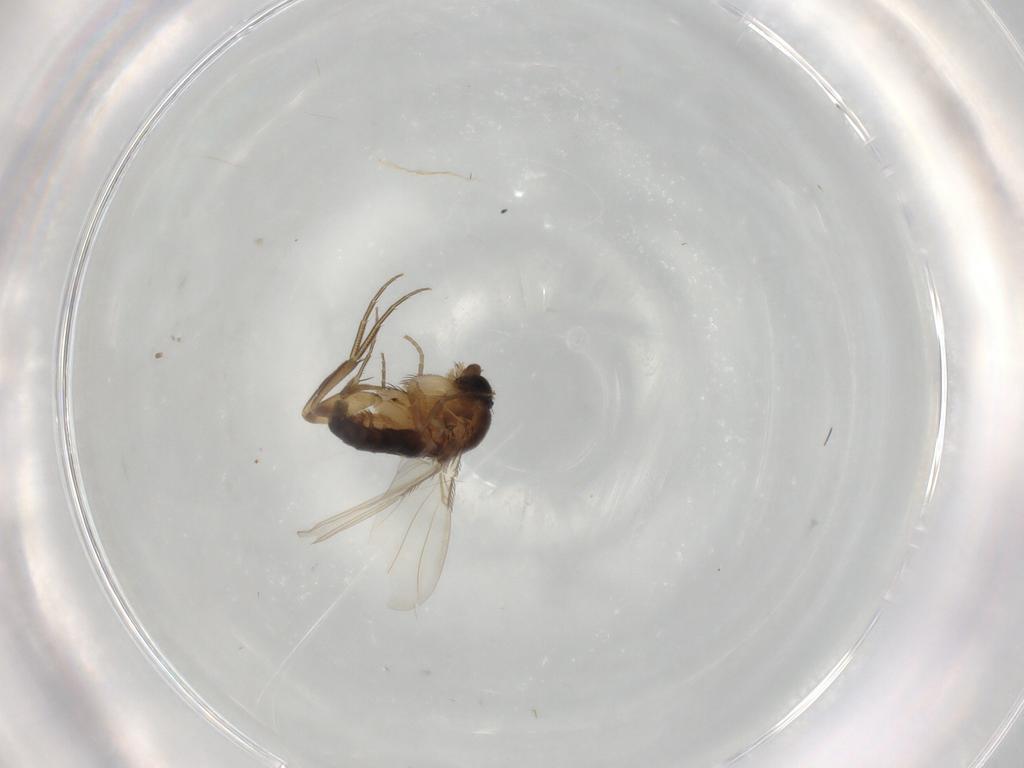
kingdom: Animalia
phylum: Arthropoda
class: Insecta
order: Diptera
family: Phoridae
